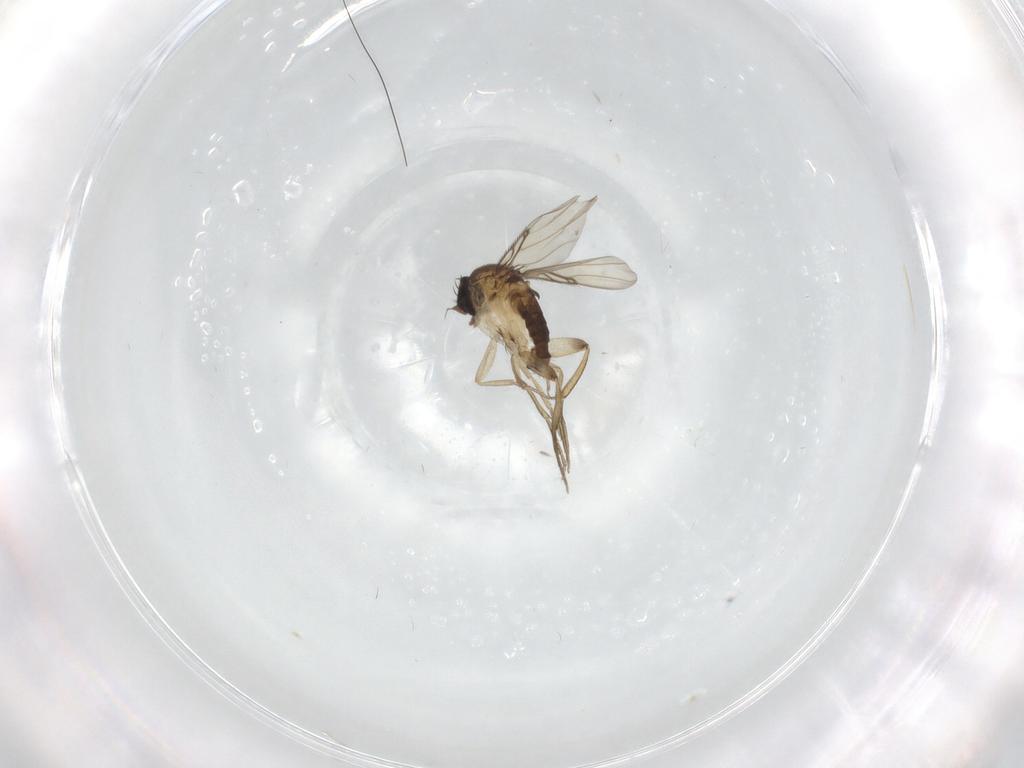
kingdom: Animalia
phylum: Arthropoda
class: Insecta
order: Diptera
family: Phoridae
